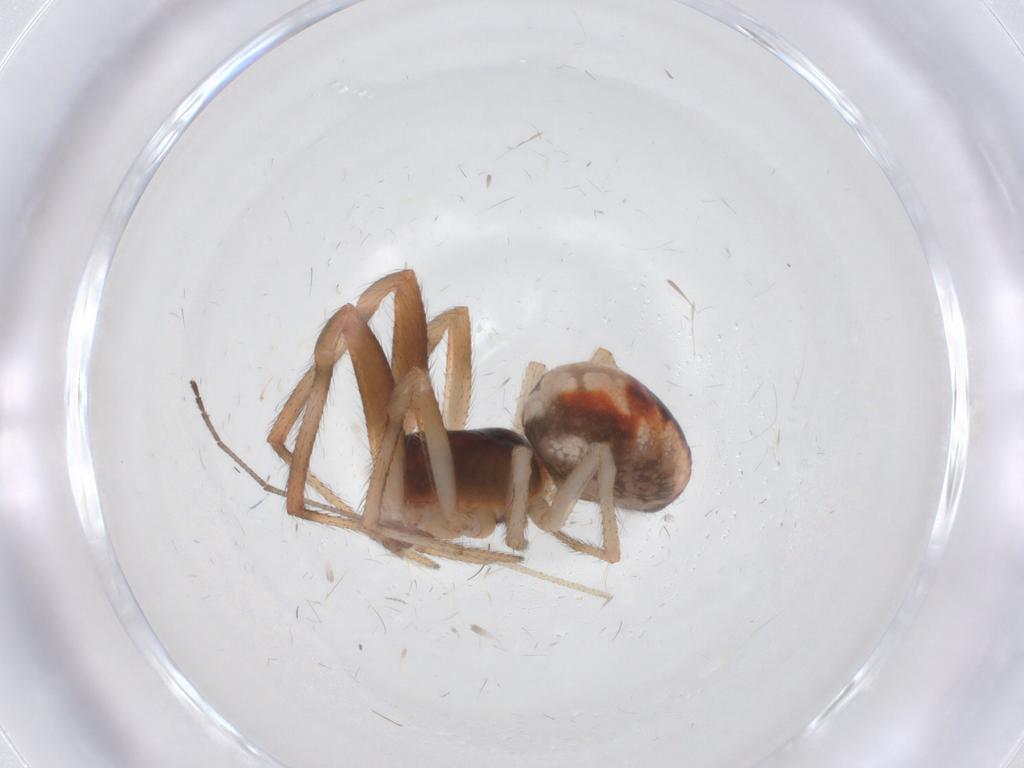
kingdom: Animalia
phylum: Arthropoda
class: Arachnida
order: Araneae
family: Theridiidae
